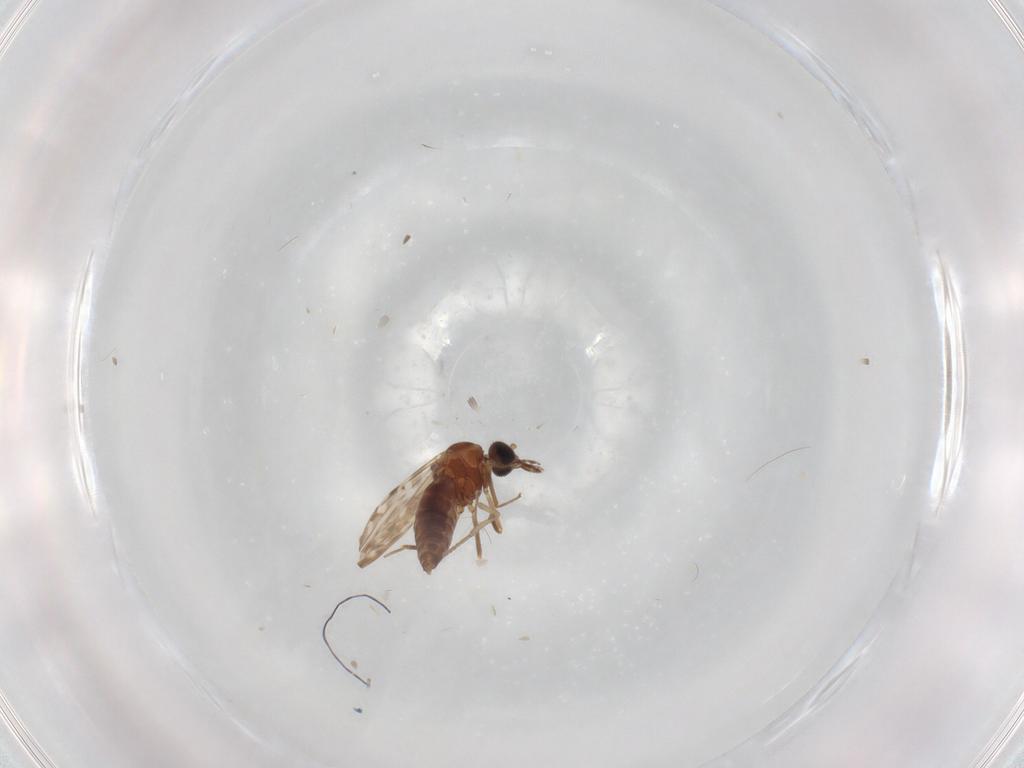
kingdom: Animalia
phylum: Arthropoda
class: Insecta
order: Diptera
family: Ceratopogonidae
